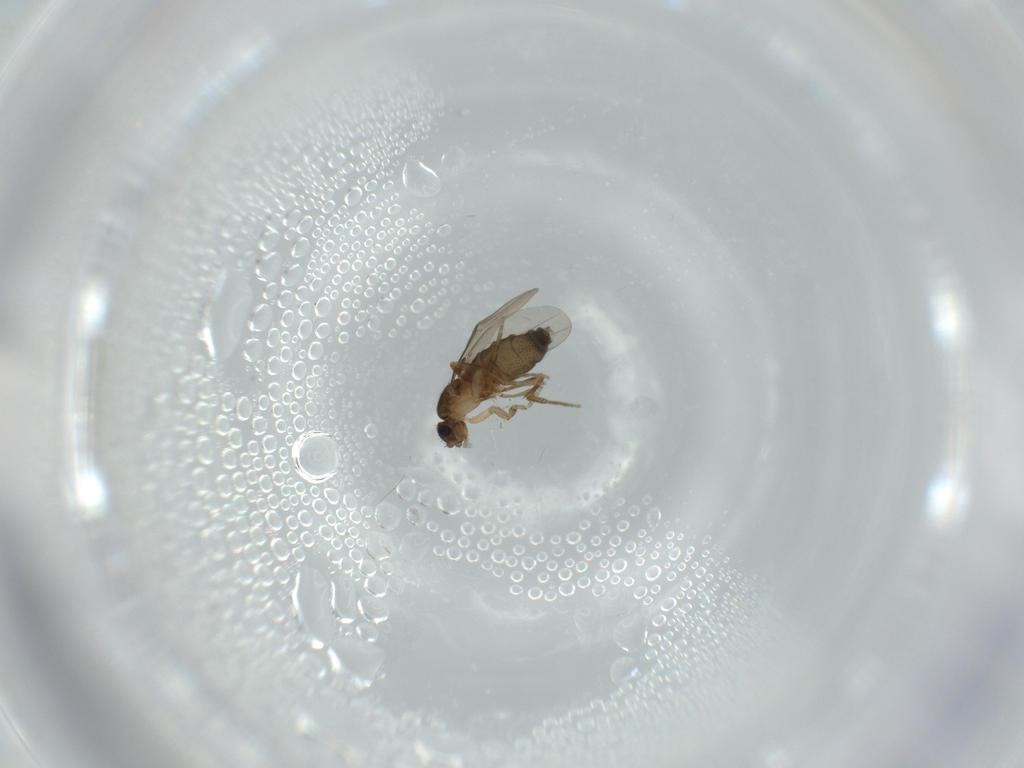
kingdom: Animalia
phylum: Arthropoda
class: Insecta
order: Diptera
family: Phoridae
